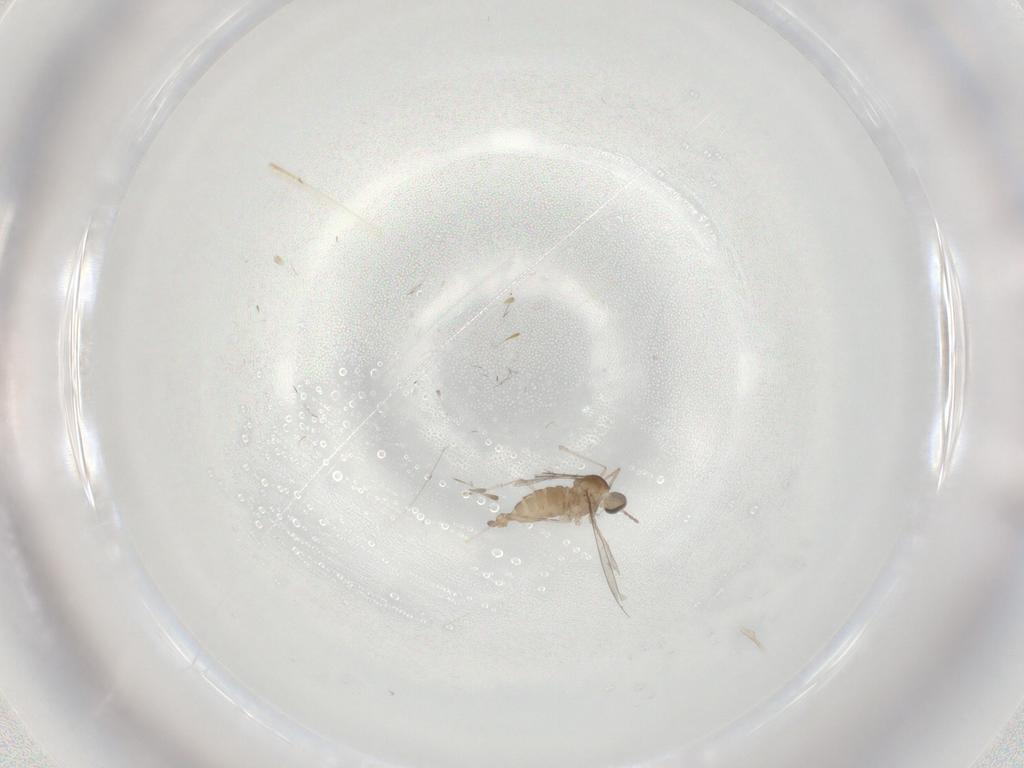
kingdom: Animalia
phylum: Arthropoda
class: Insecta
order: Diptera
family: Cecidomyiidae
